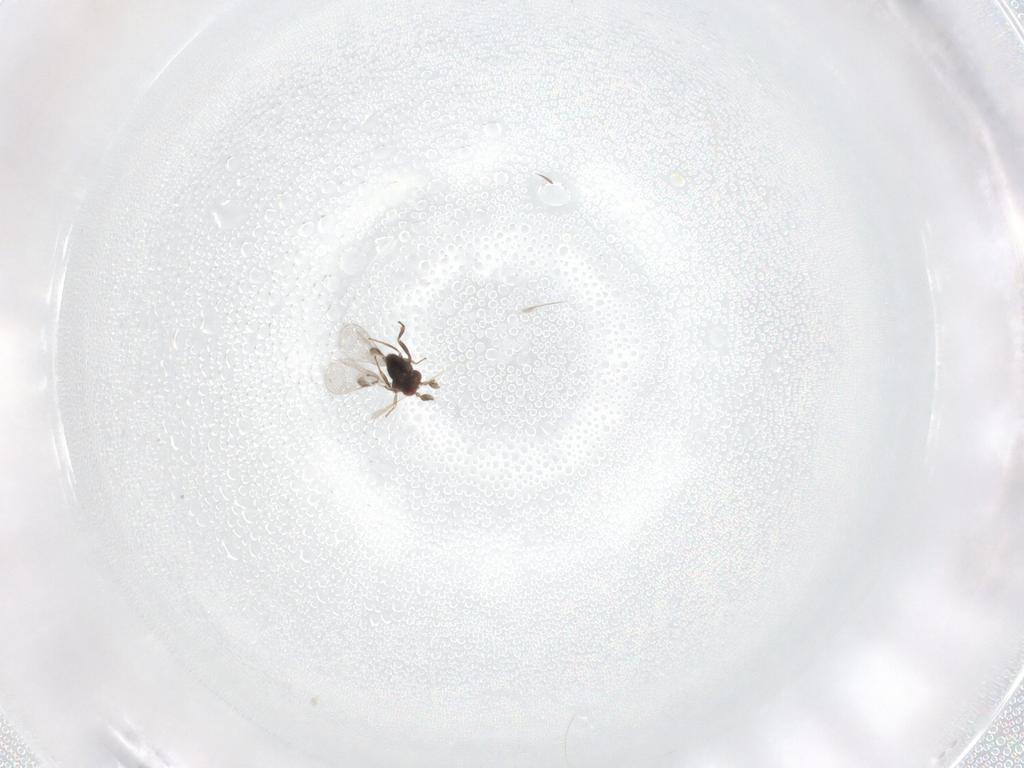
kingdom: Animalia
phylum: Arthropoda
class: Insecta
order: Hymenoptera
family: Trichogrammatidae
